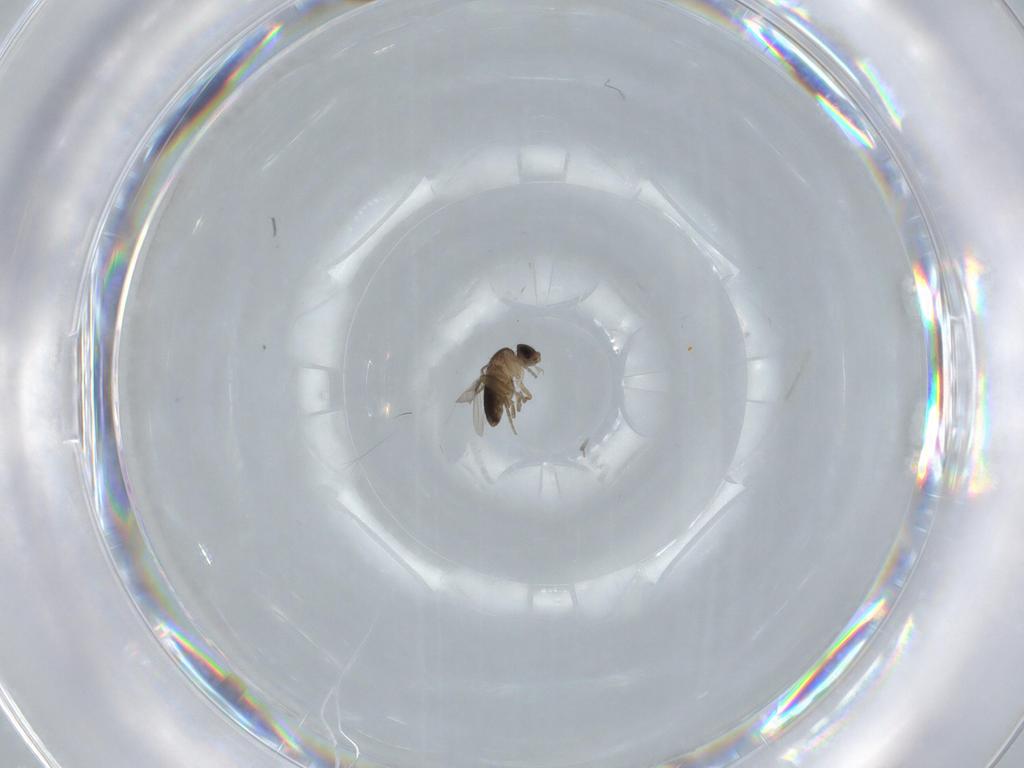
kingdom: Animalia
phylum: Arthropoda
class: Insecta
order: Diptera
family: Phoridae
